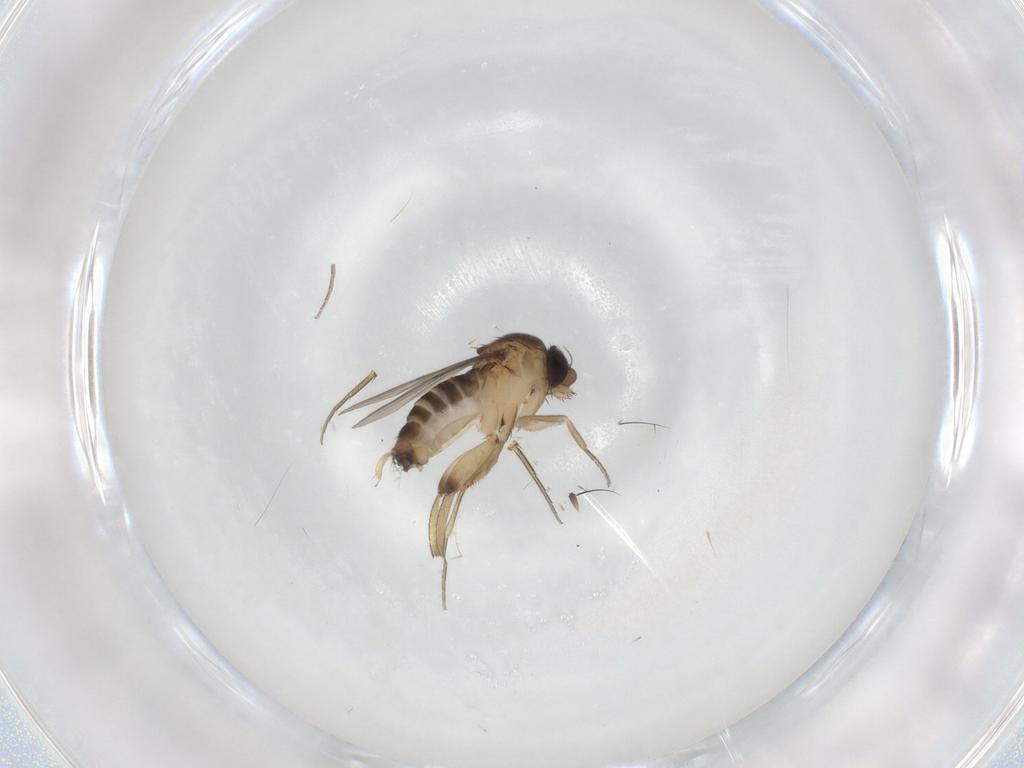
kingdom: Animalia
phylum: Arthropoda
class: Insecta
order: Diptera
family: Phoridae
